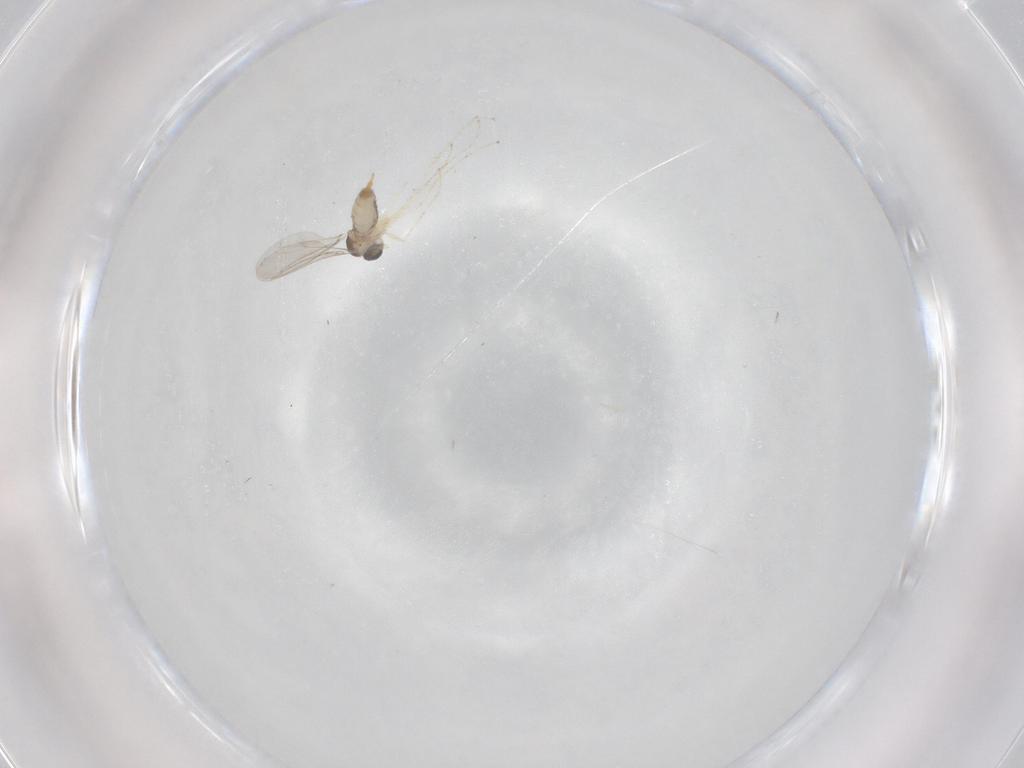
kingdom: Animalia
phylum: Arthropoda
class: Insecta
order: Diptera
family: Cecidomyiidae
